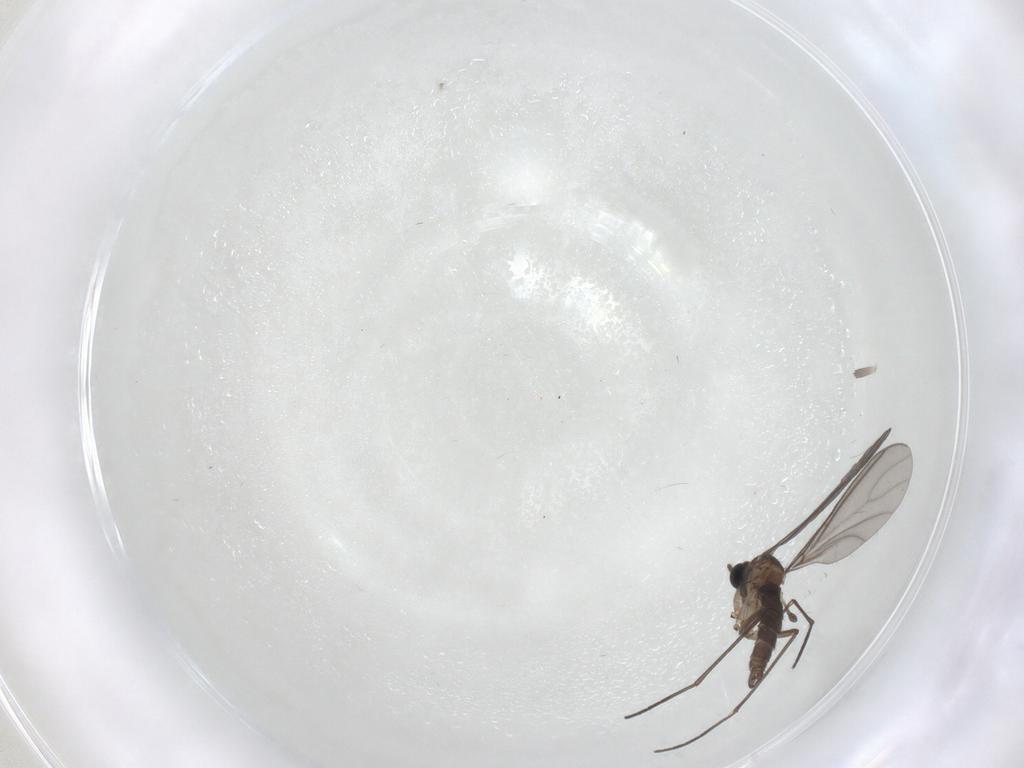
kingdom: Animalia
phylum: Arthropoda
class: Insecta
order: Diptera
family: Sciaridae
